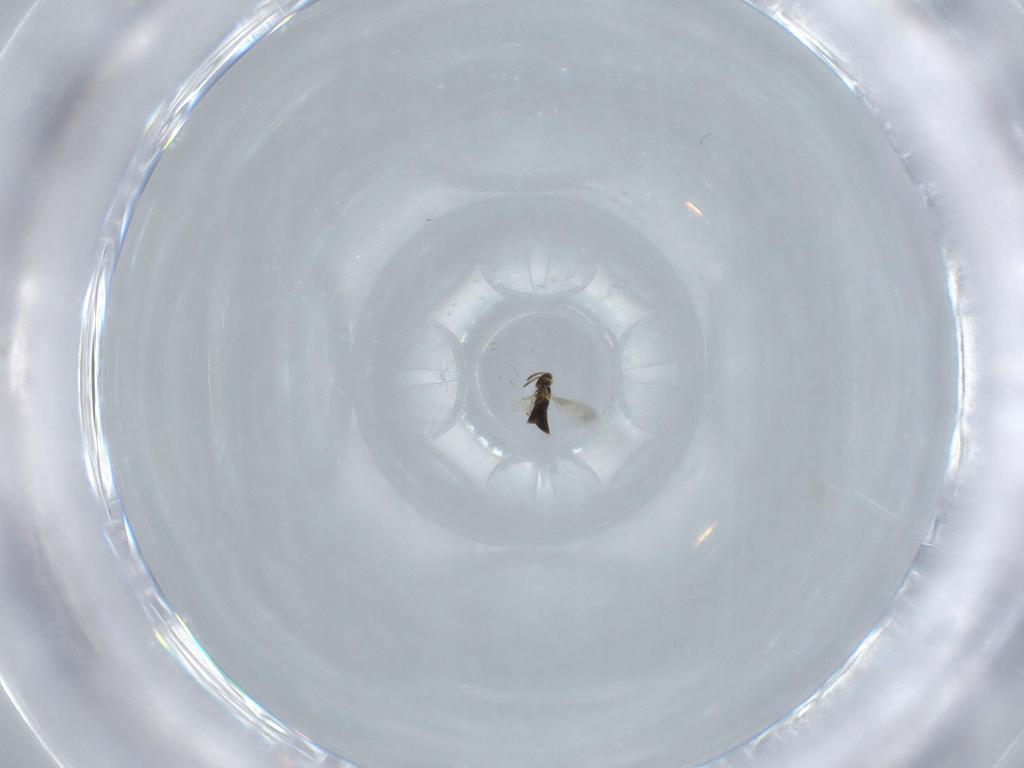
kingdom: Animalia
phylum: Arthropoda
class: Insecta
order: Hymenoptera
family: Signiphoridae
